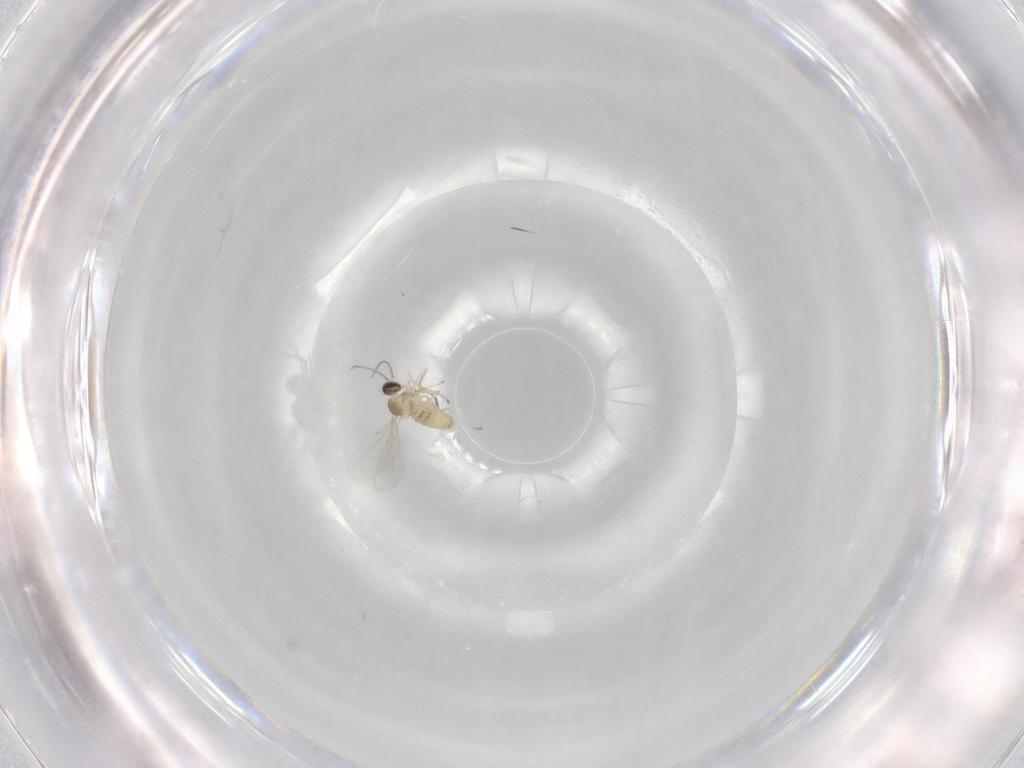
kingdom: Animalia
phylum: Arthropoda
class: Insecta
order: Diptera
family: Cecidomyiidae
